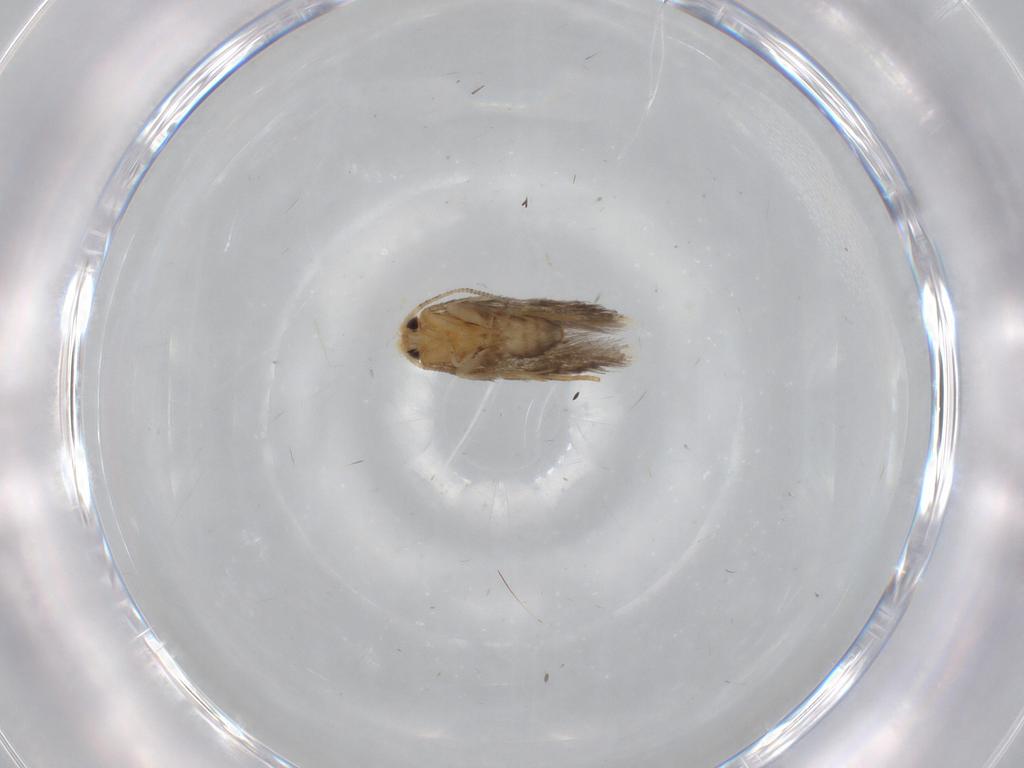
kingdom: Animalia
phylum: Arthropoda
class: Insecta
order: Lepidoptera
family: Nepticulidae
